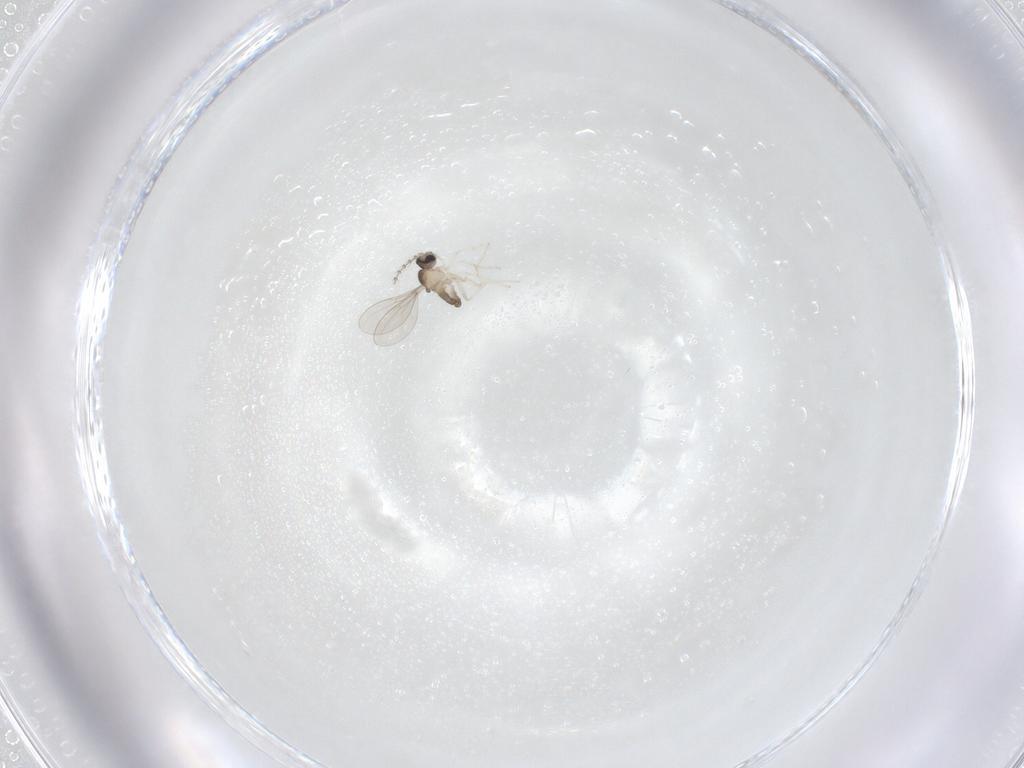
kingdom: Animalia
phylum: Arthropoda
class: Insecta
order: Diptera
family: Cecidomyiidae
